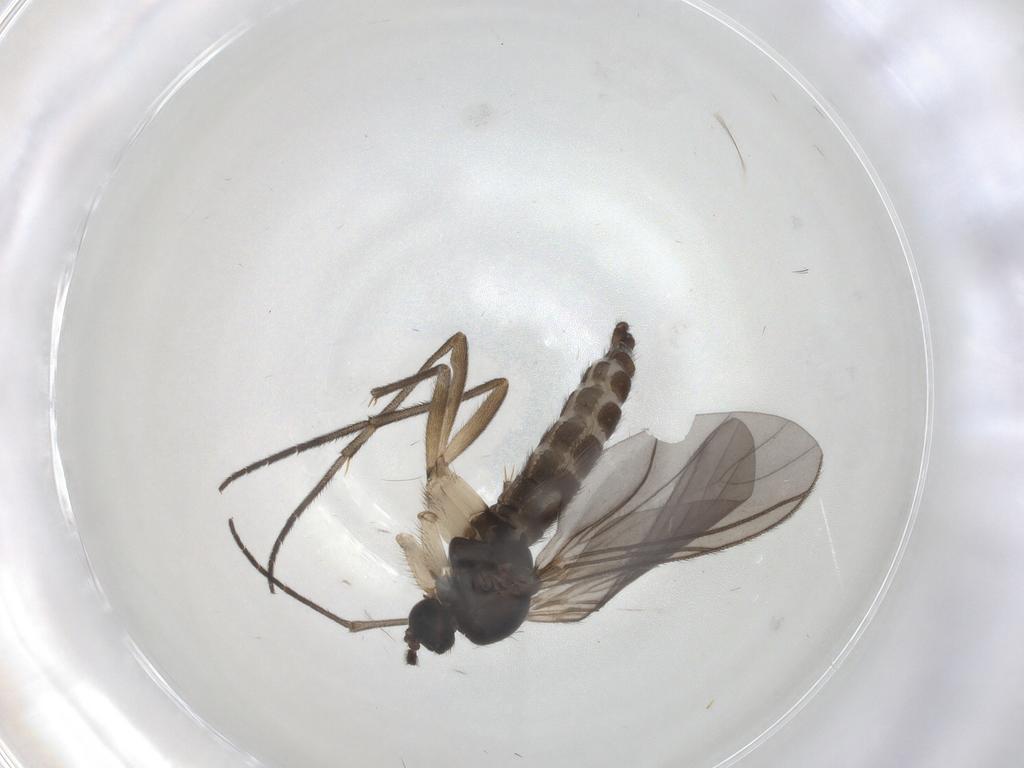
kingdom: Animalia
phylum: Arthropoda
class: Insecta
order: Diptera
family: Sciaridae
